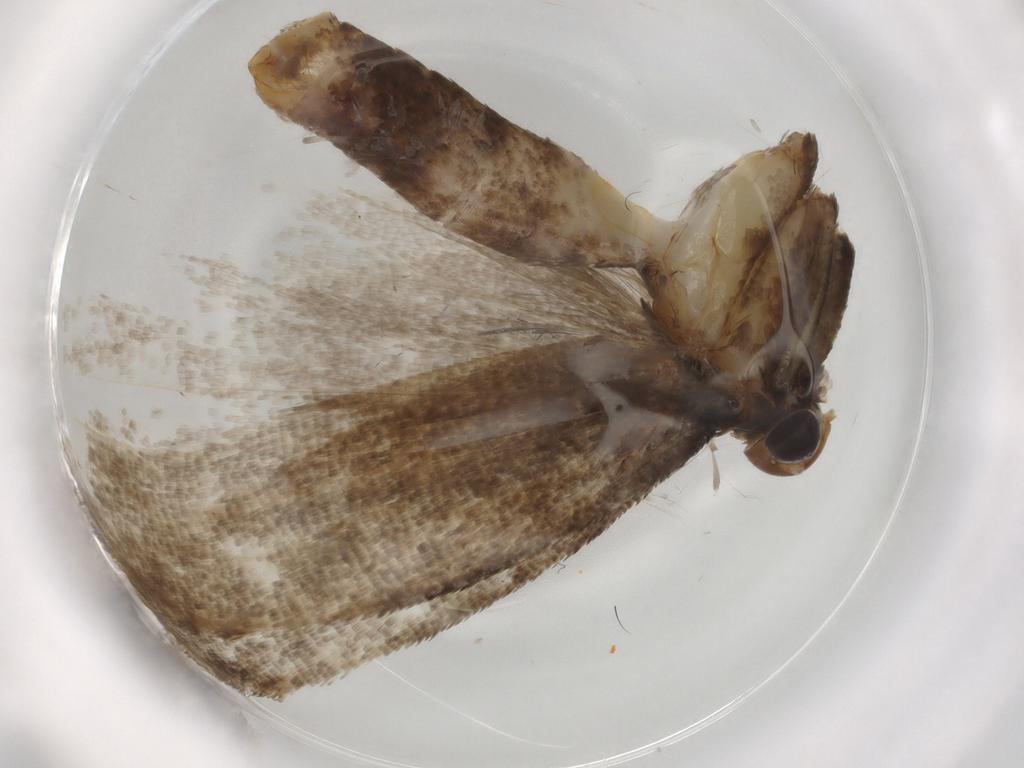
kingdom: Animalia
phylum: Arthropoda
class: Insecta
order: Lepidoptera
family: Gelechiidae
